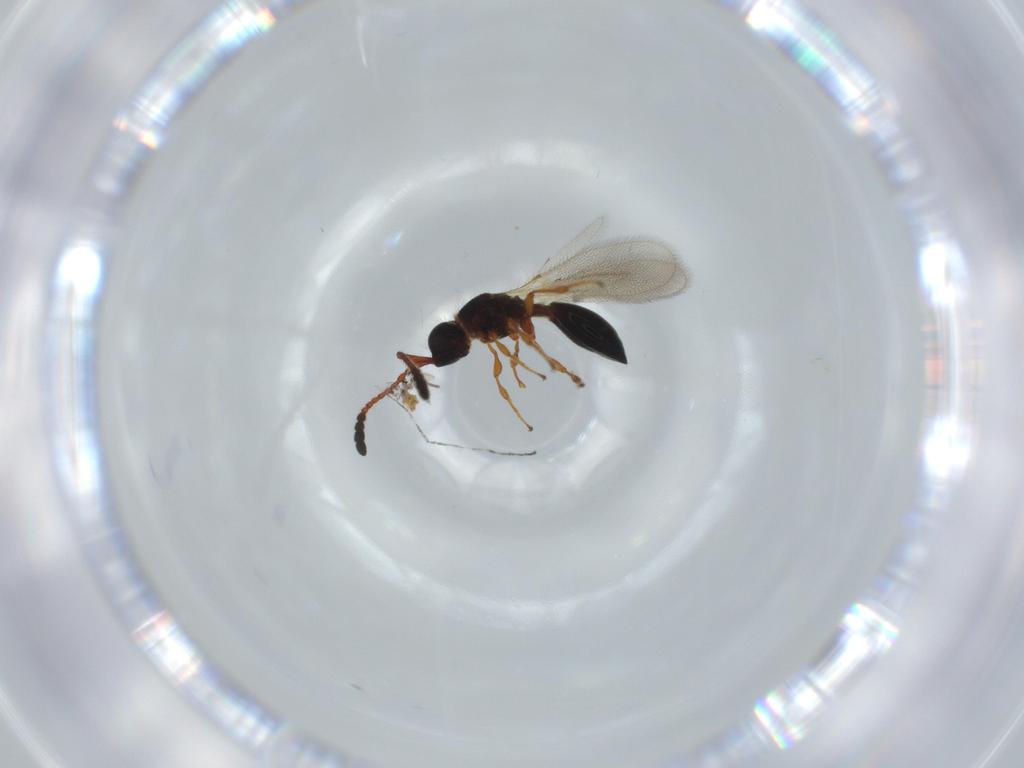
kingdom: Animalia
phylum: Arthropoda
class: Insecta
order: Hymenoptera
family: Diapriidae
